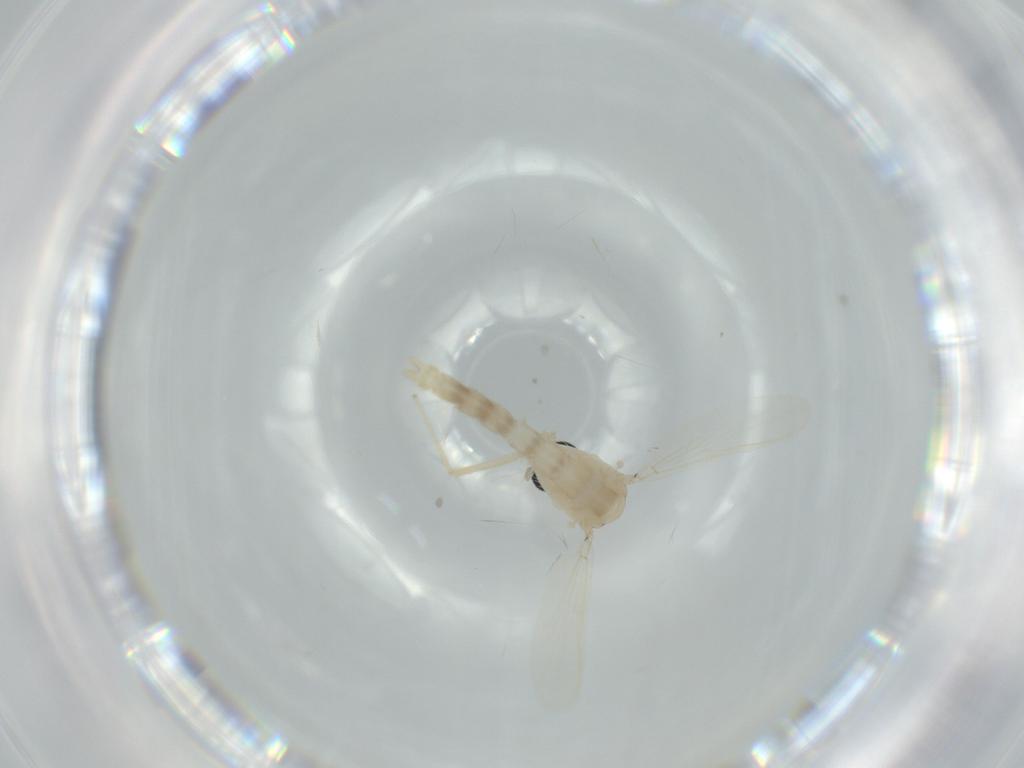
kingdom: Animalia
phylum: Arthropoda
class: Insecta
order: Diptera
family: Chironomidae
